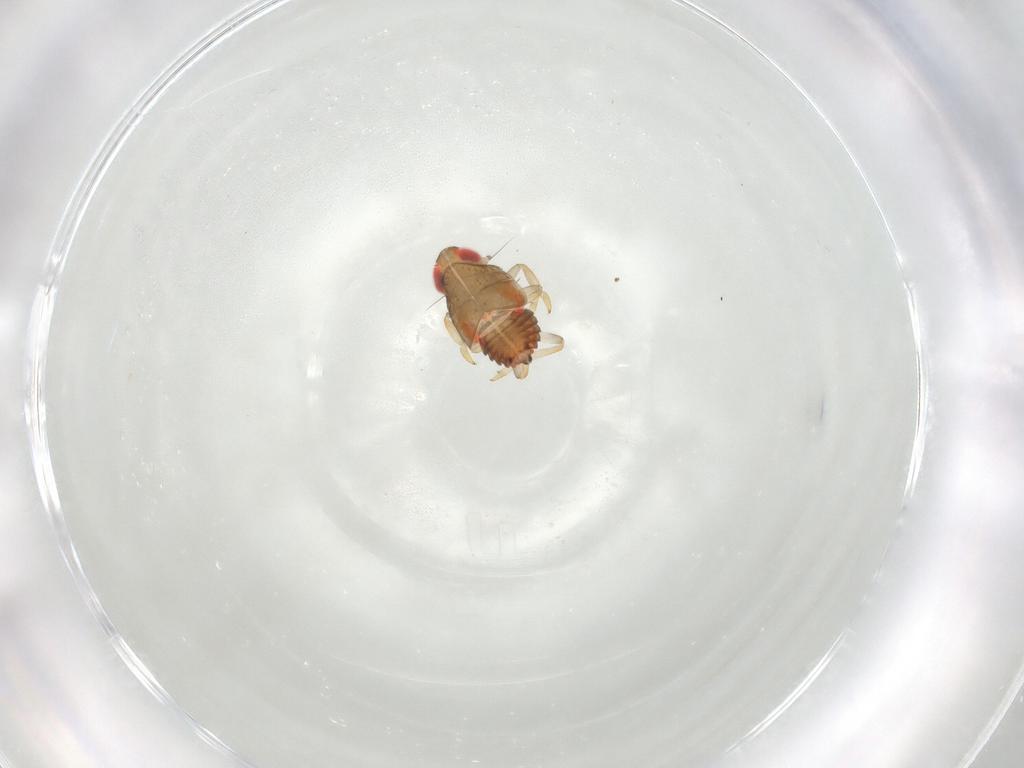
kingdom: Animalia
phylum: Arthropoda
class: Insecta
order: Hemiptera
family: Issidae
